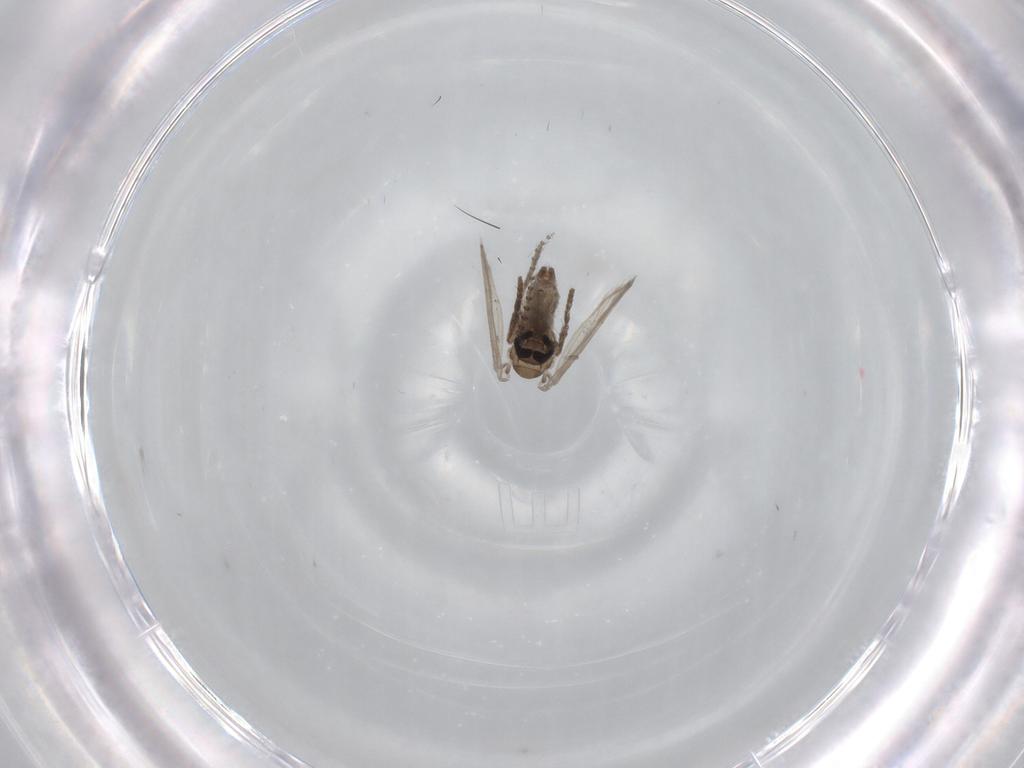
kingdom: Animalia
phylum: Arthropoda
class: Insecta
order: Diptera
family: Psychodidae
